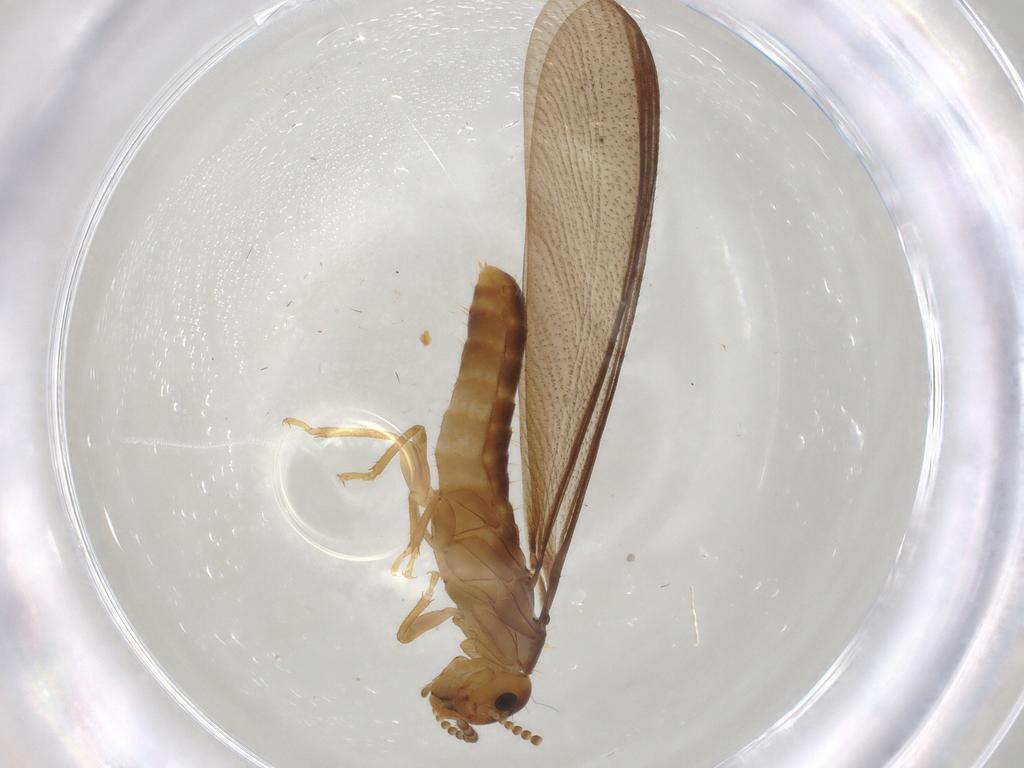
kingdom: Animalia
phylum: Arthropoda
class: Insecta
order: Blattodea
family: Kalotermitidae
